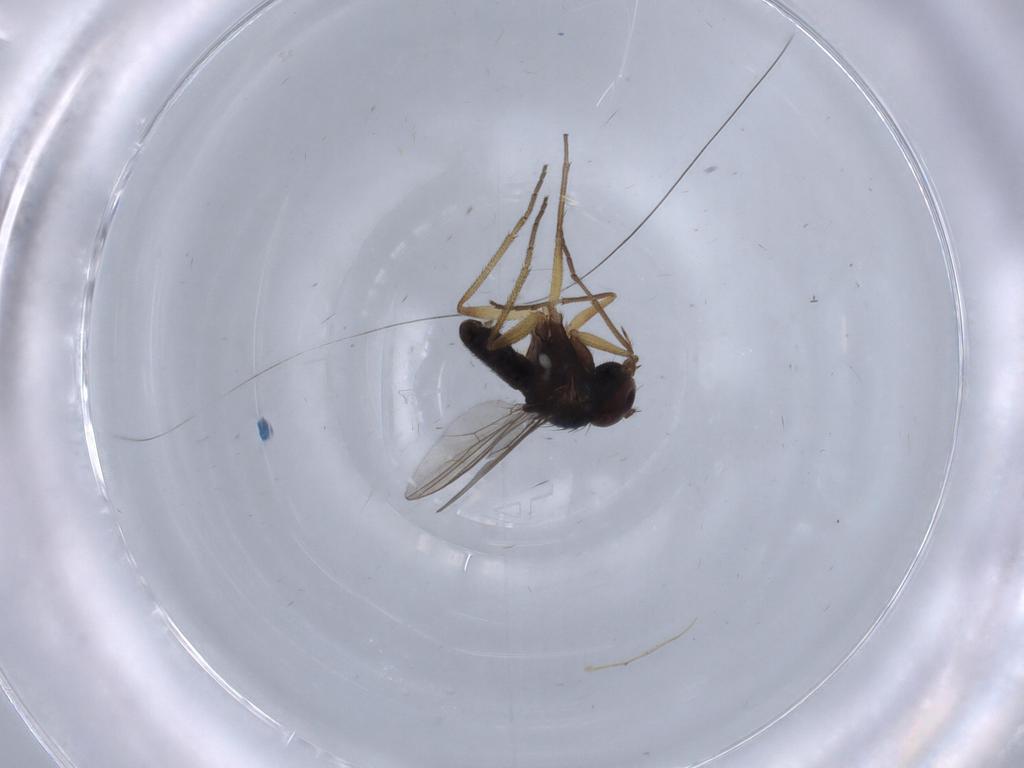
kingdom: Animalia
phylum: Arthropoda
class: Insecta
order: Diptera
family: Dolichopodidae
